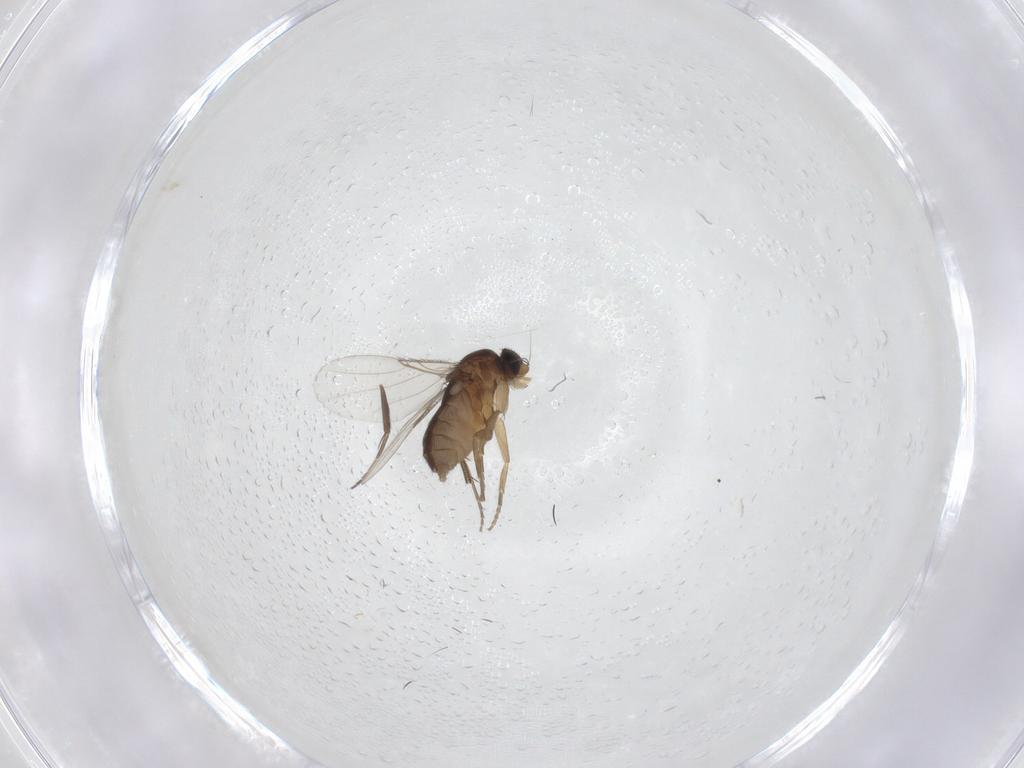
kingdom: Animalia
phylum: Arthropoda
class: Insecta
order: Diptera
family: Phoridae
